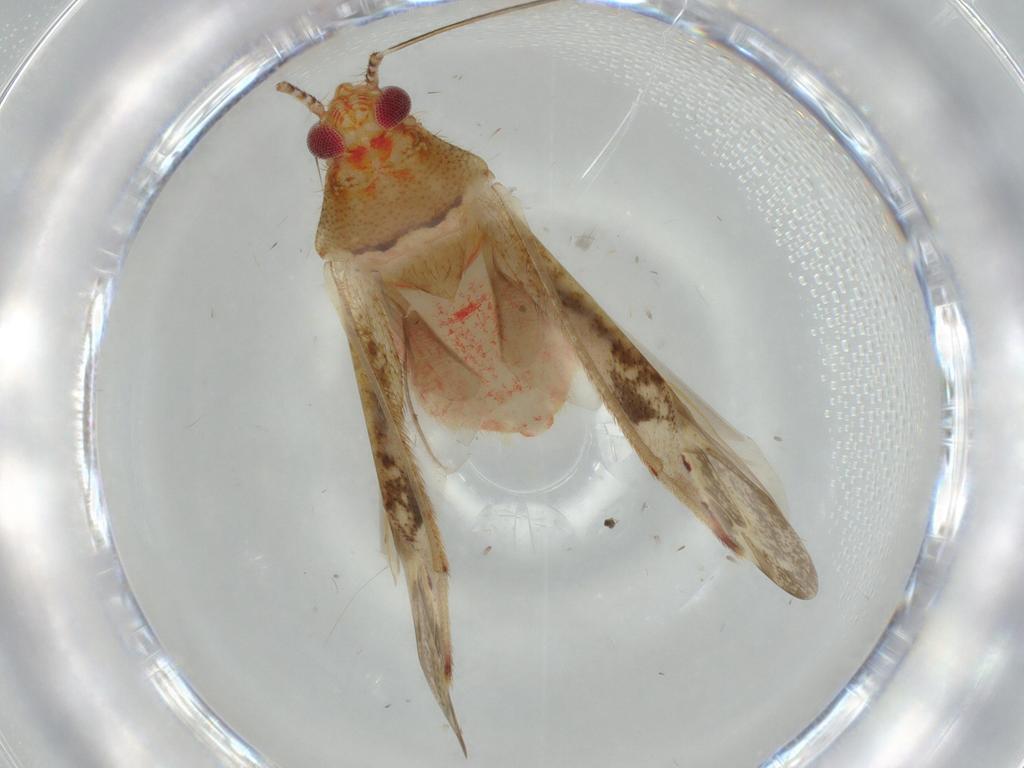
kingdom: Animalia
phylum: Arthropoda
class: Insecta
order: Hemiptera
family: Miridae
